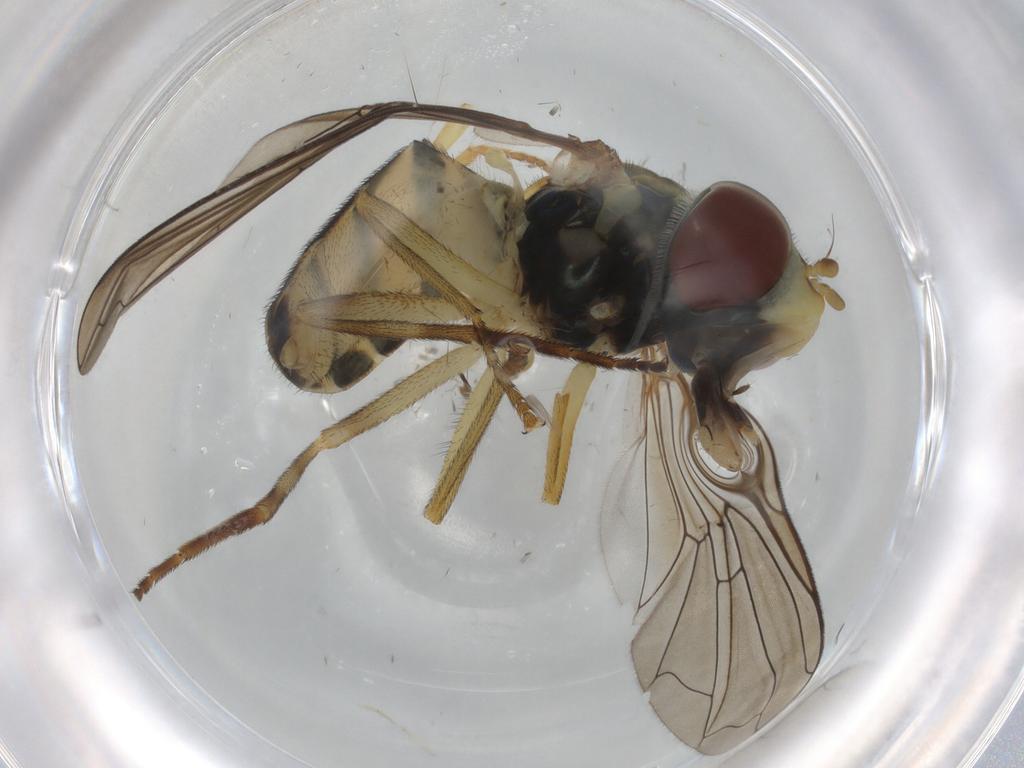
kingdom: Animalia
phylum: Arthropoda
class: Insecta
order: Diptera
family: Syrphidae
